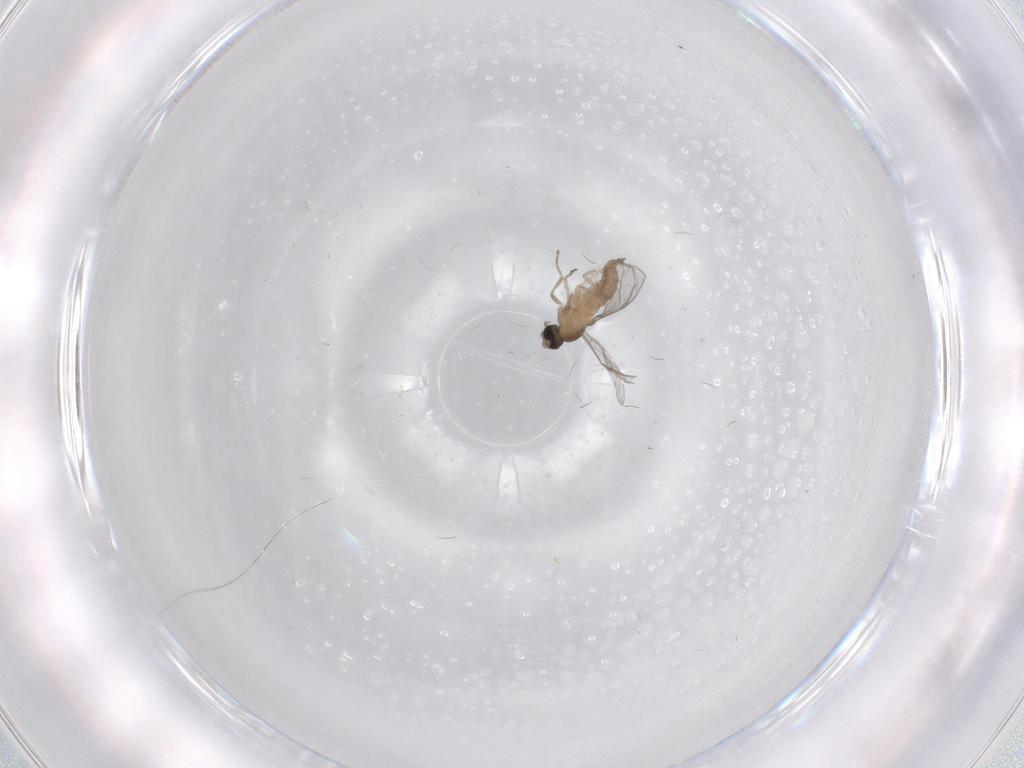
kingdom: Animalia
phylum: Arthropoda
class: Insecta
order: Diptera
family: Cecidomyiidae
